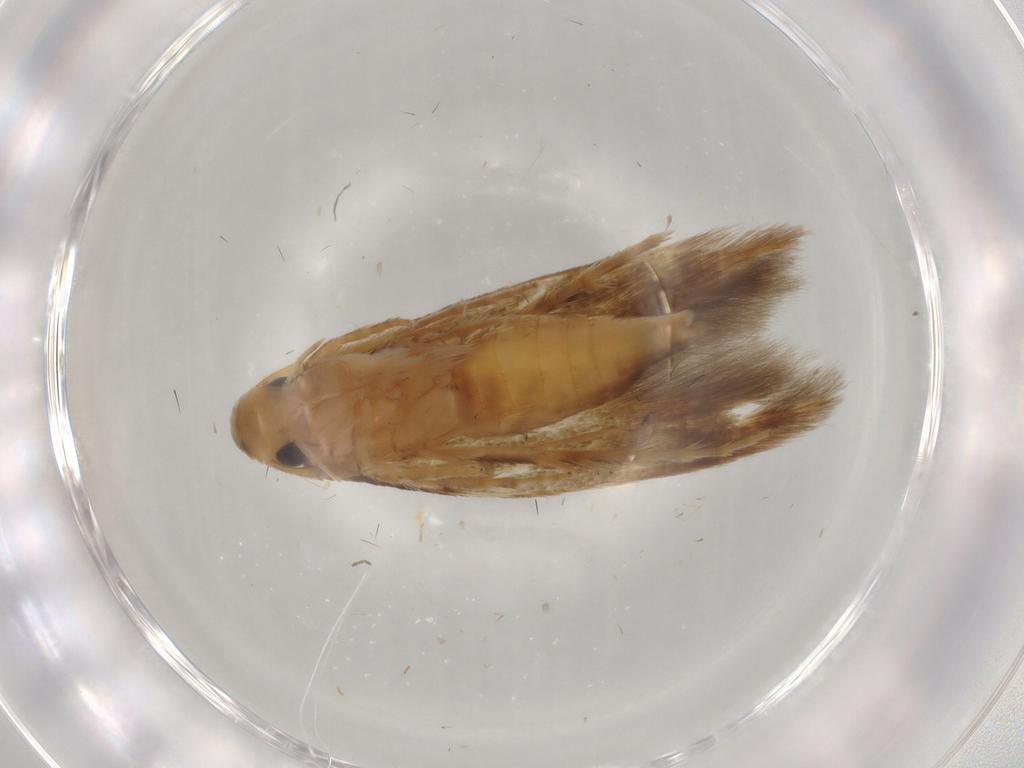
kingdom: Animalia
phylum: Arthropoda
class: Insecta
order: Lepidoptera
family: Tineidae
